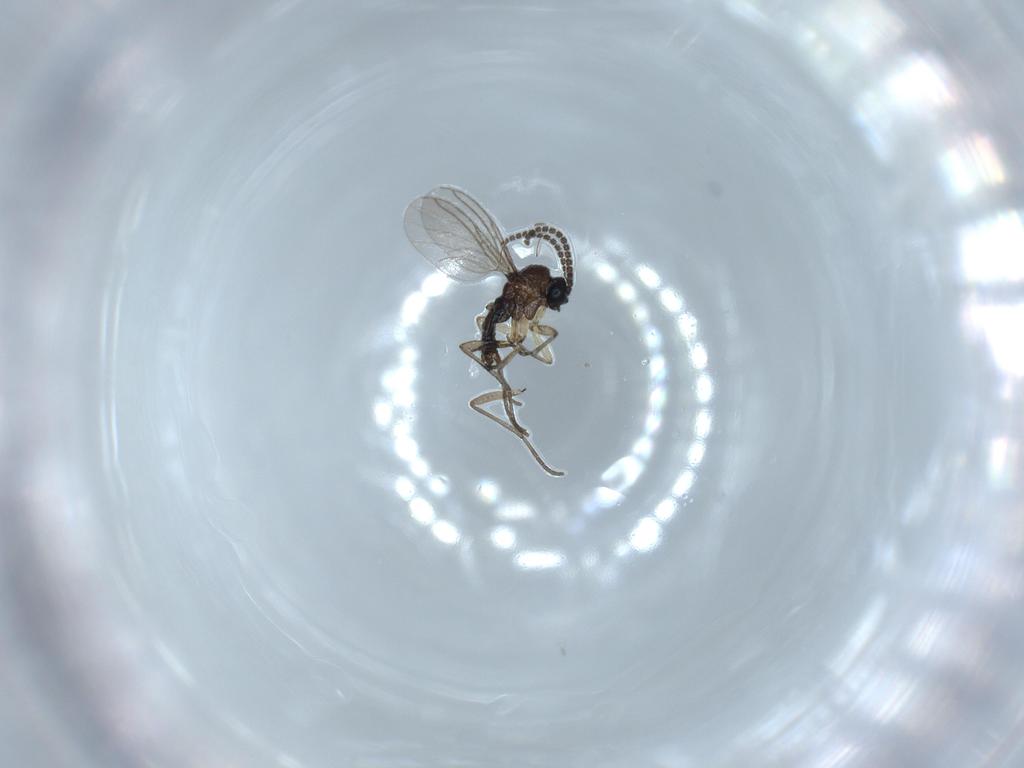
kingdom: Animalia
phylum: Arthropoda
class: Insecta
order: Diptera
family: Sciaridae
